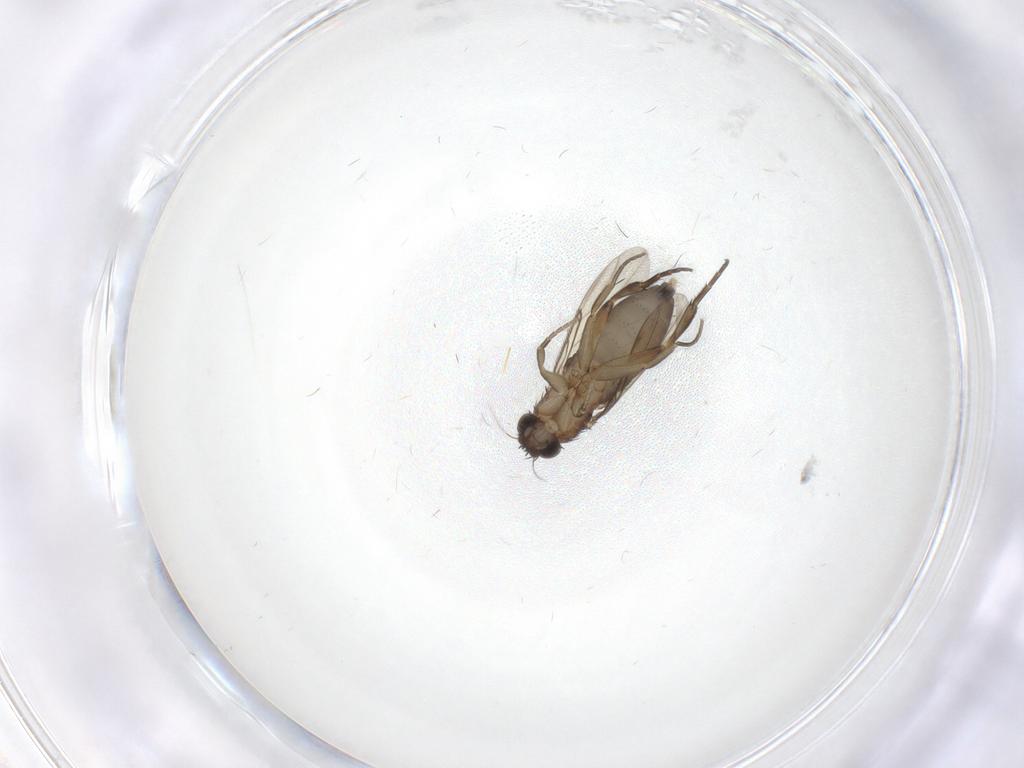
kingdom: Animalia
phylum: Arthropoda
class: Insecta
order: Diptera
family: Phoridae
